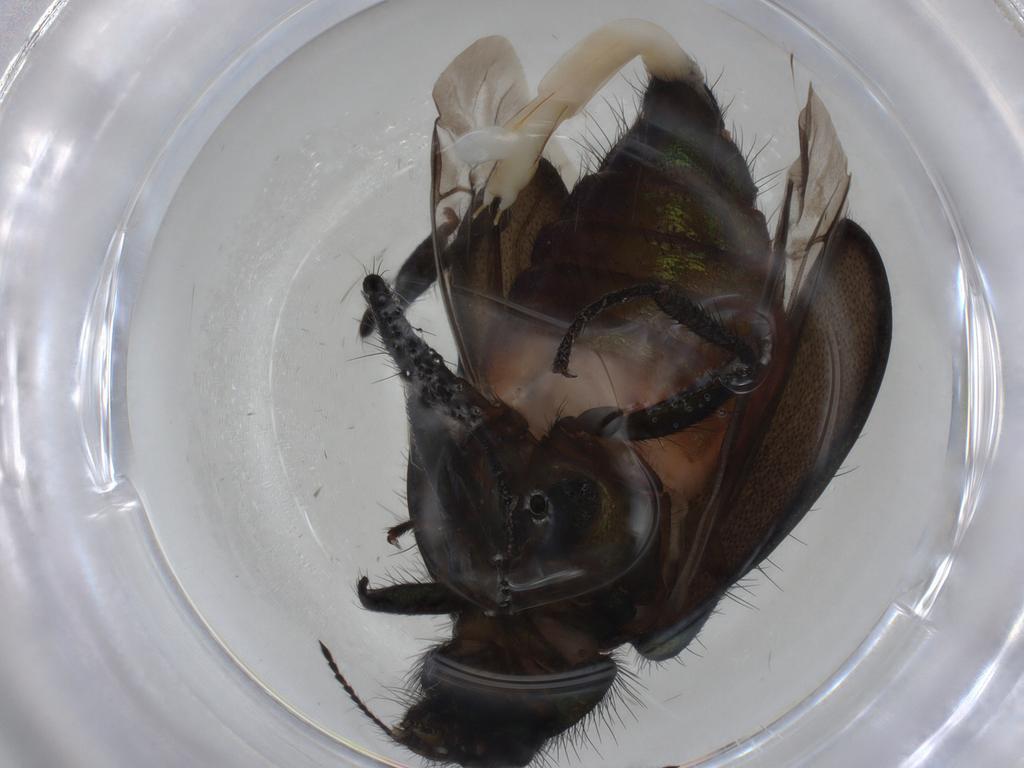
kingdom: Animalia
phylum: Arthropoda
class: Insecta
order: Coleoptera
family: Melyridae
